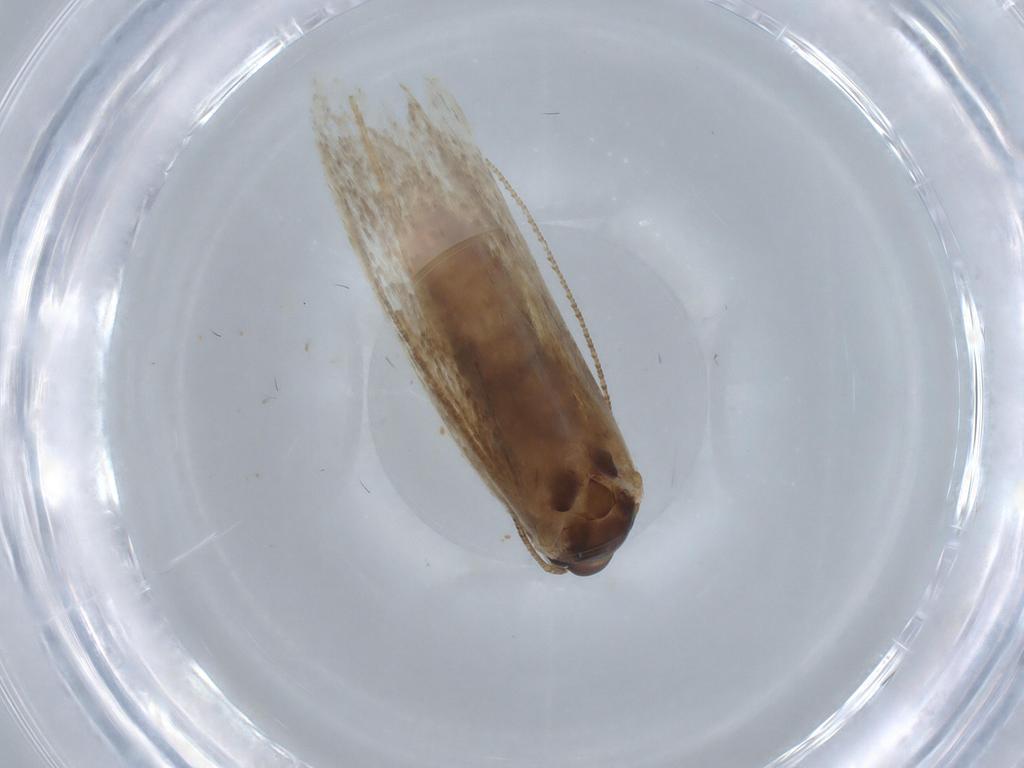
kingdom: Animalia
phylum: Arthropoda
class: Insecta
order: Lepidoptera
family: Autostichidae
